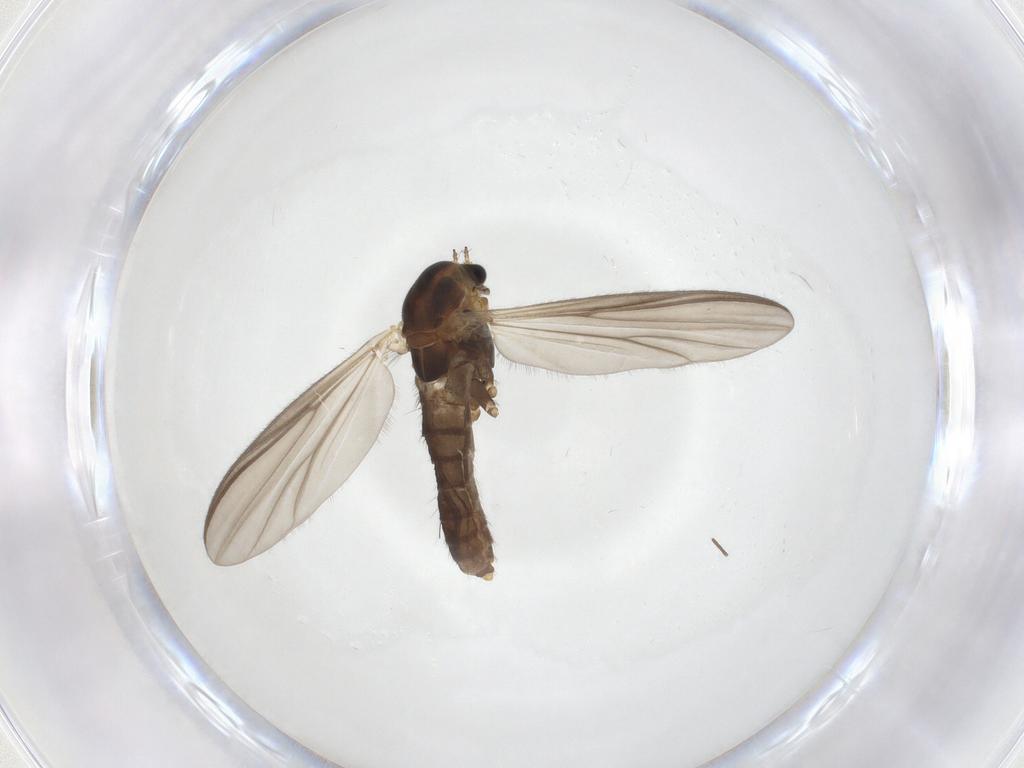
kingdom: Animalia
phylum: Arthropoda
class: Insecta
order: Diptera
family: Chironomidae
